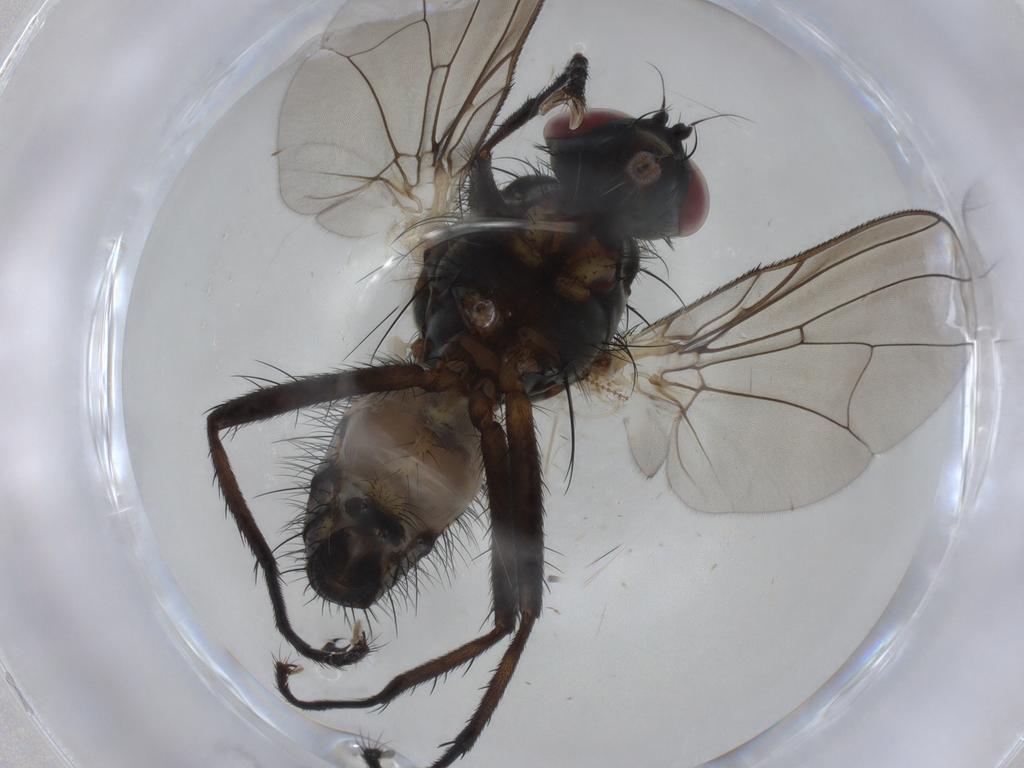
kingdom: Animalia
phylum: Arthropoda
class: Insecta
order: Diptera
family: Anthomyiidae
